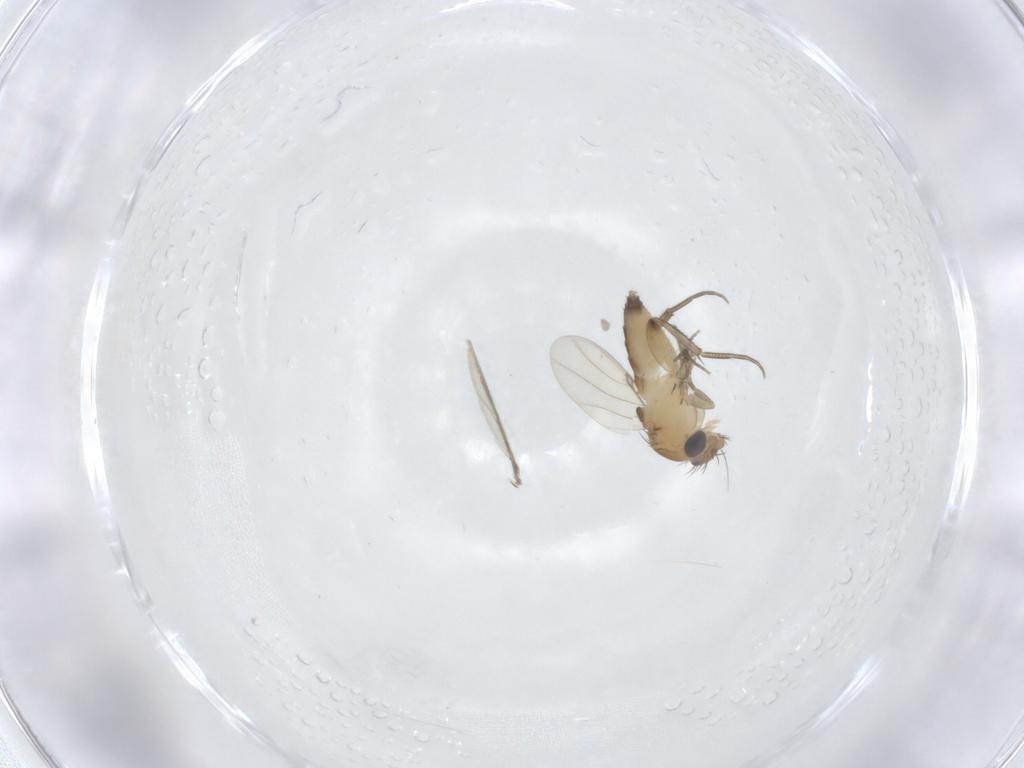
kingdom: Animalia
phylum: Arthropoda
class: Insecta
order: Diptera
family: Phoridae
